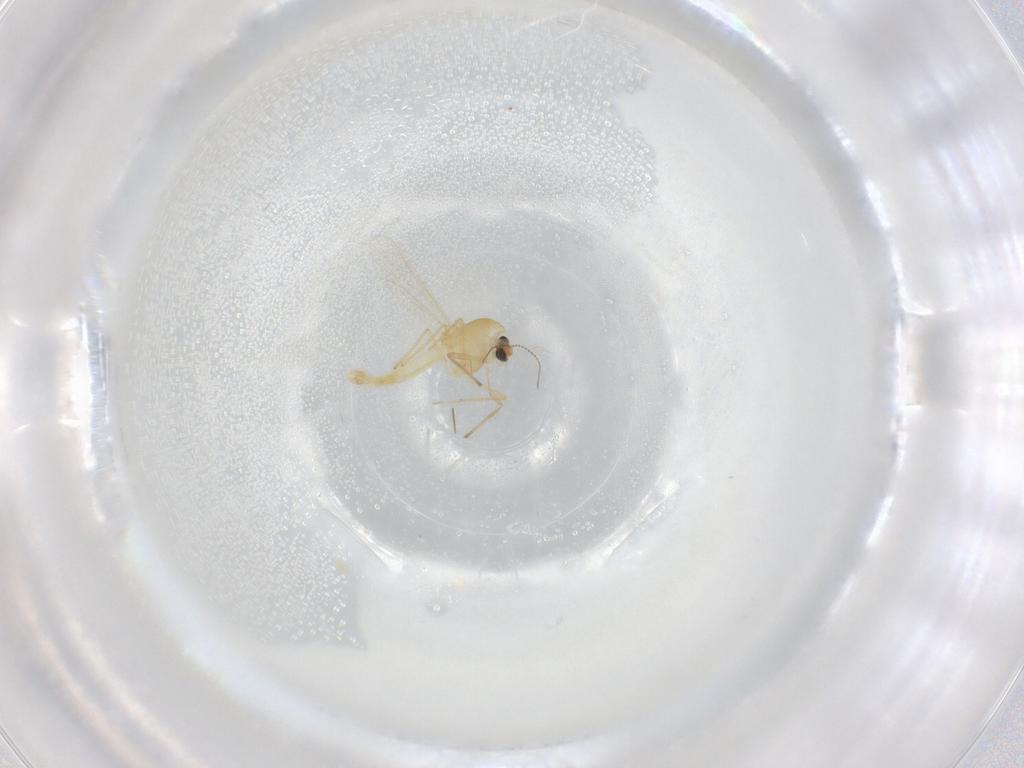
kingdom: Animalia
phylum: Arthropoda
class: Insecta
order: Diptera
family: Chironomidae
